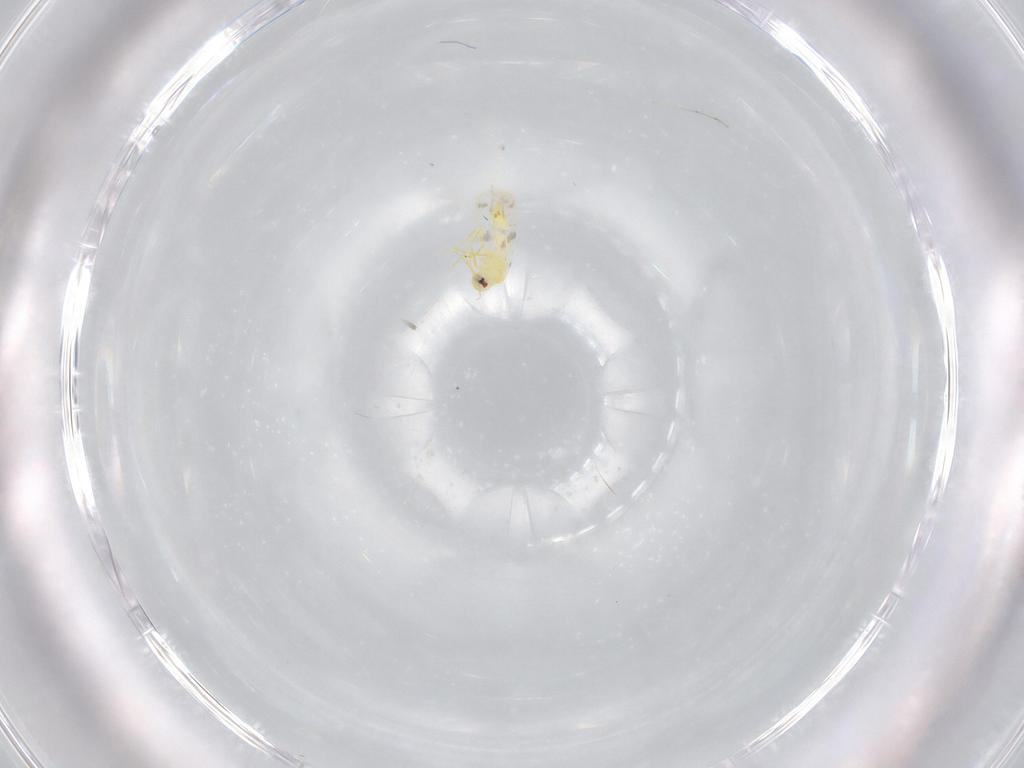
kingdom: Animalia
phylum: Arthropoda
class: Insecta
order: Hemiptera
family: Aleyrodidae
